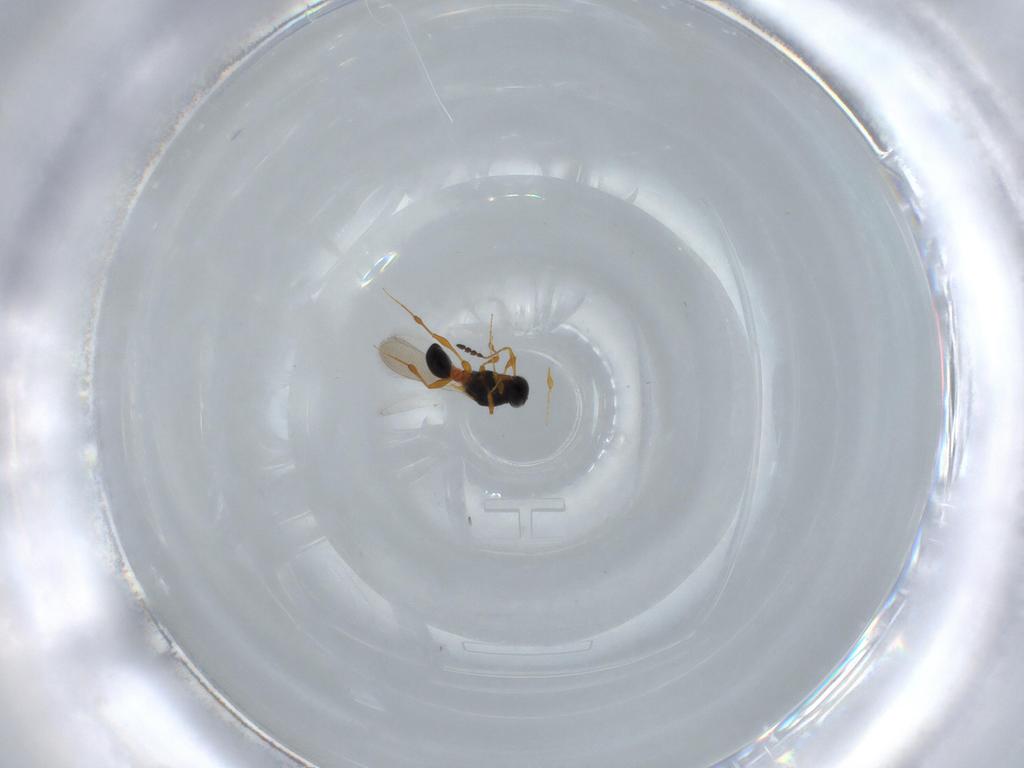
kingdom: Animalia
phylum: Arthropoda
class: Insecta
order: Hymenoptera
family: Platygastridae
